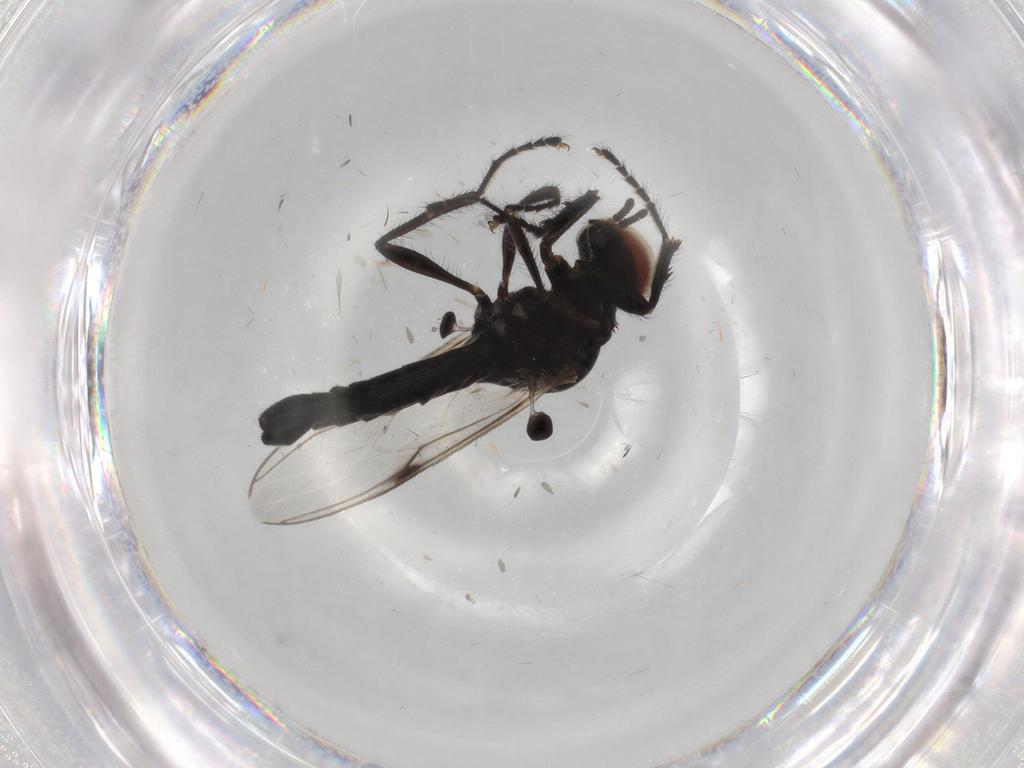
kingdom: Animalia
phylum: Arthropoda
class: Insecta
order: Diptera
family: Bibionidae
